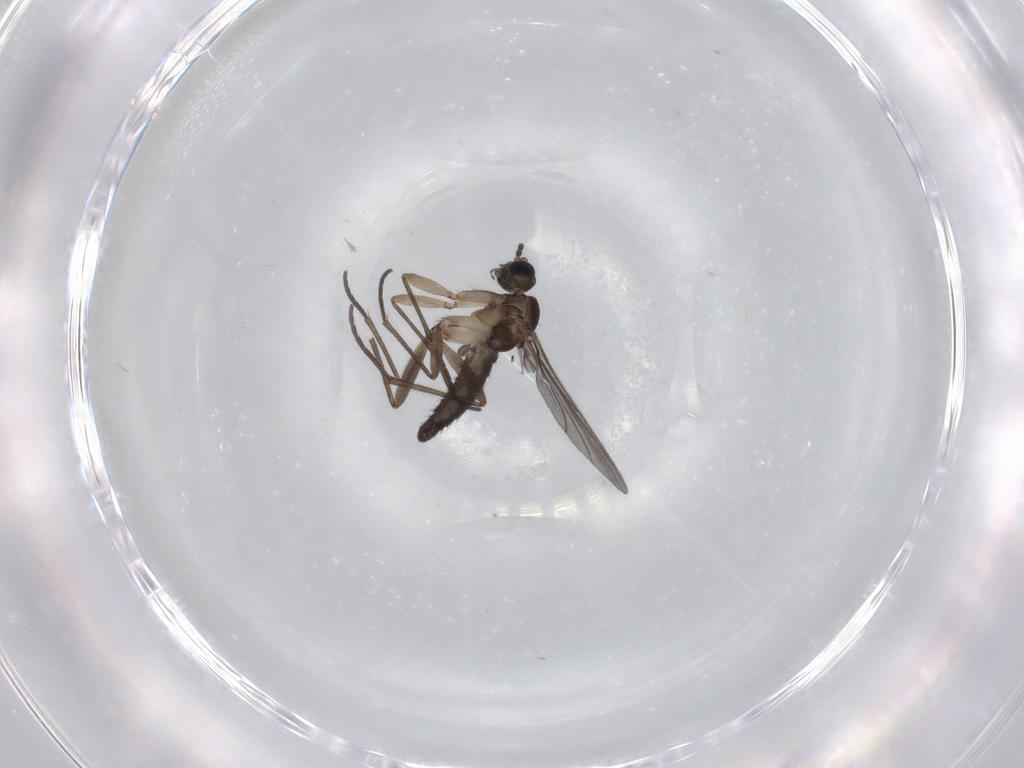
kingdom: Animalia
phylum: Arthropoda
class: Insecta
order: Diptera
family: Sciaridae
